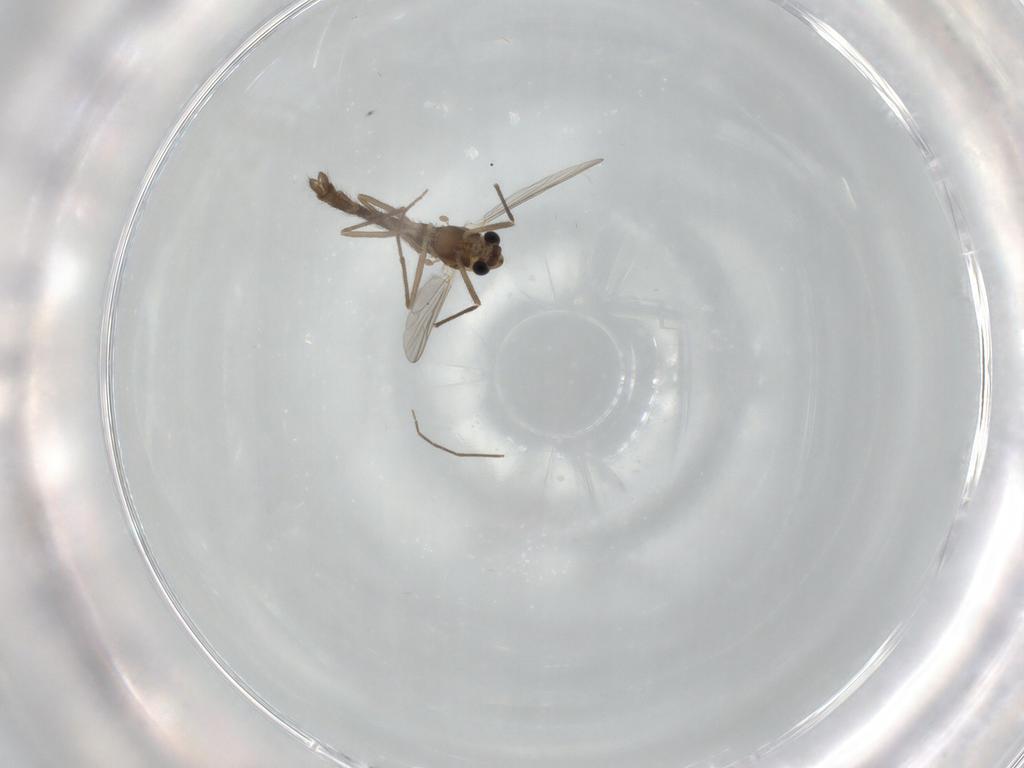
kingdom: Animalia
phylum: Arthropoda
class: Insecta
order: Diptera
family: Chironomidae
